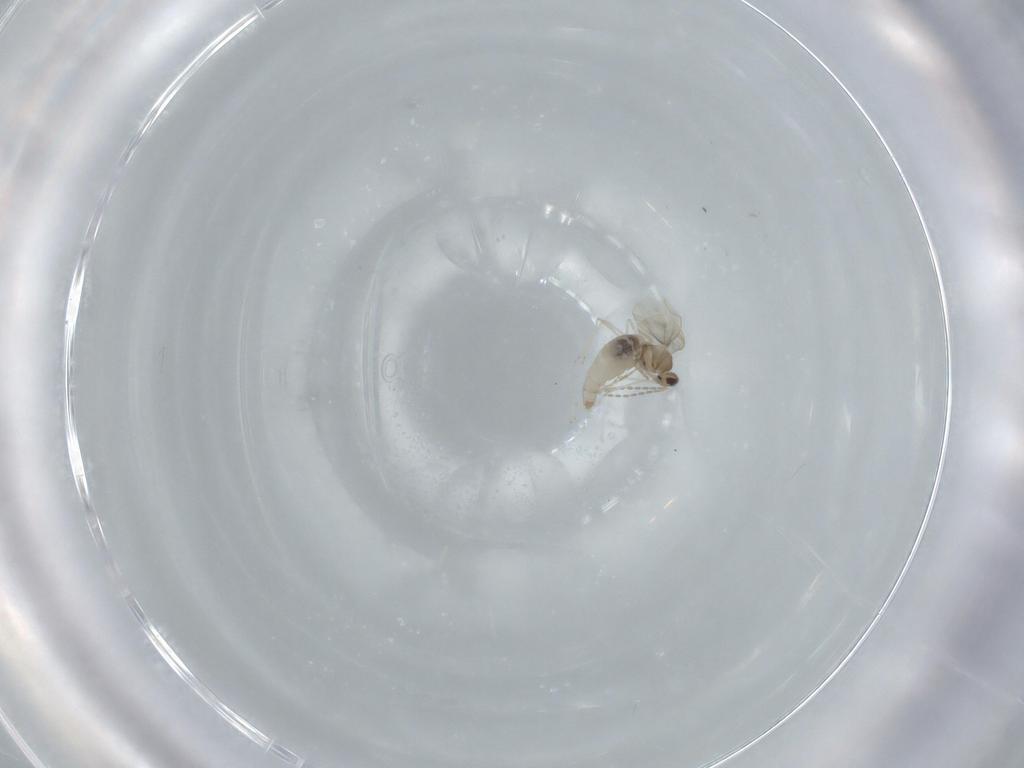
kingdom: Animalia
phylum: Arthropoda
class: Insecta
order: Diptera
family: Cecidomyiidae
